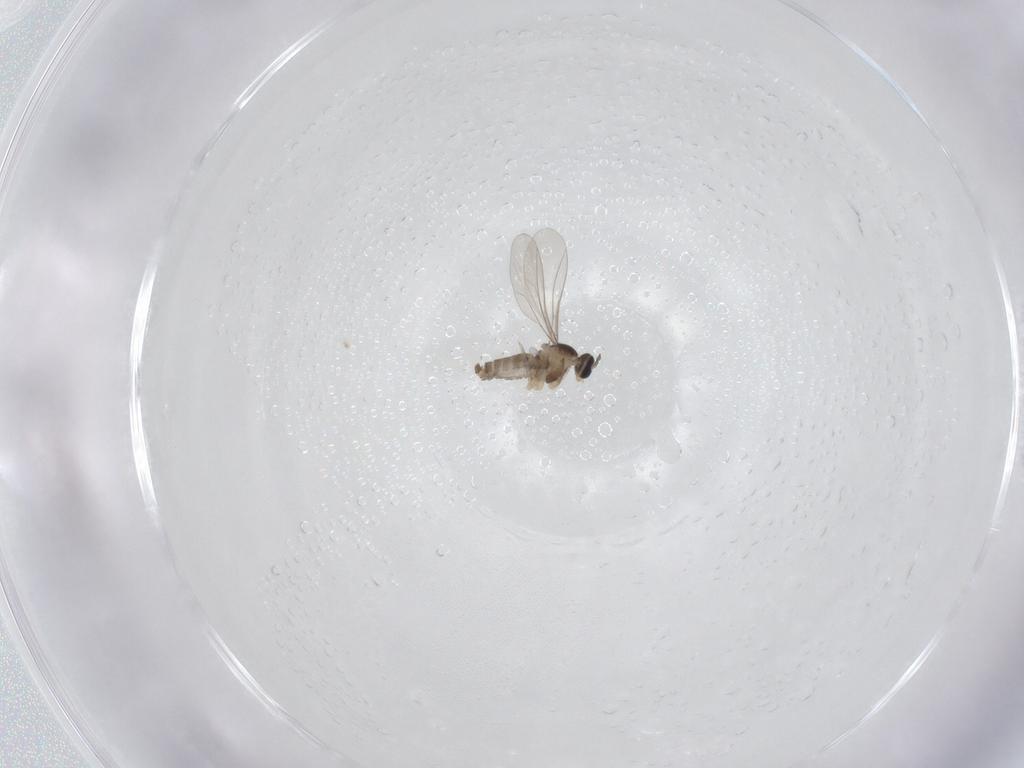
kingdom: Animalia
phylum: Arthropoda
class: Insecta
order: Diptera
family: Cecidomyiidae
